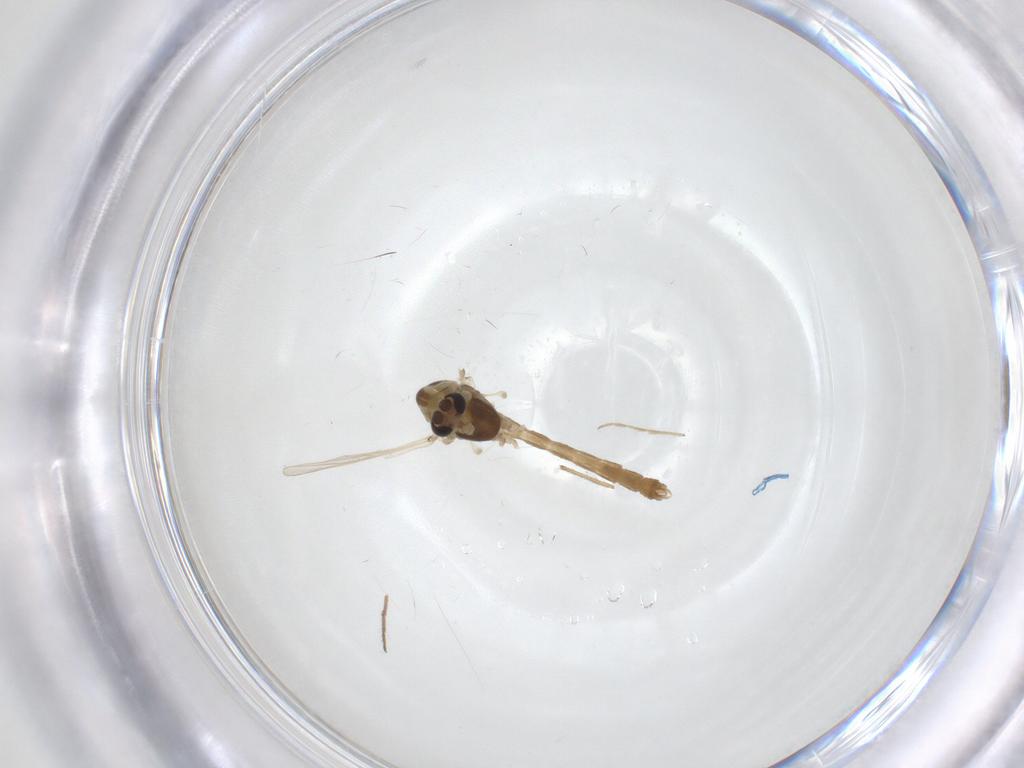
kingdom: Animalia
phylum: Arthropoda
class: Insecta
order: Diptera
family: Chironomidae
